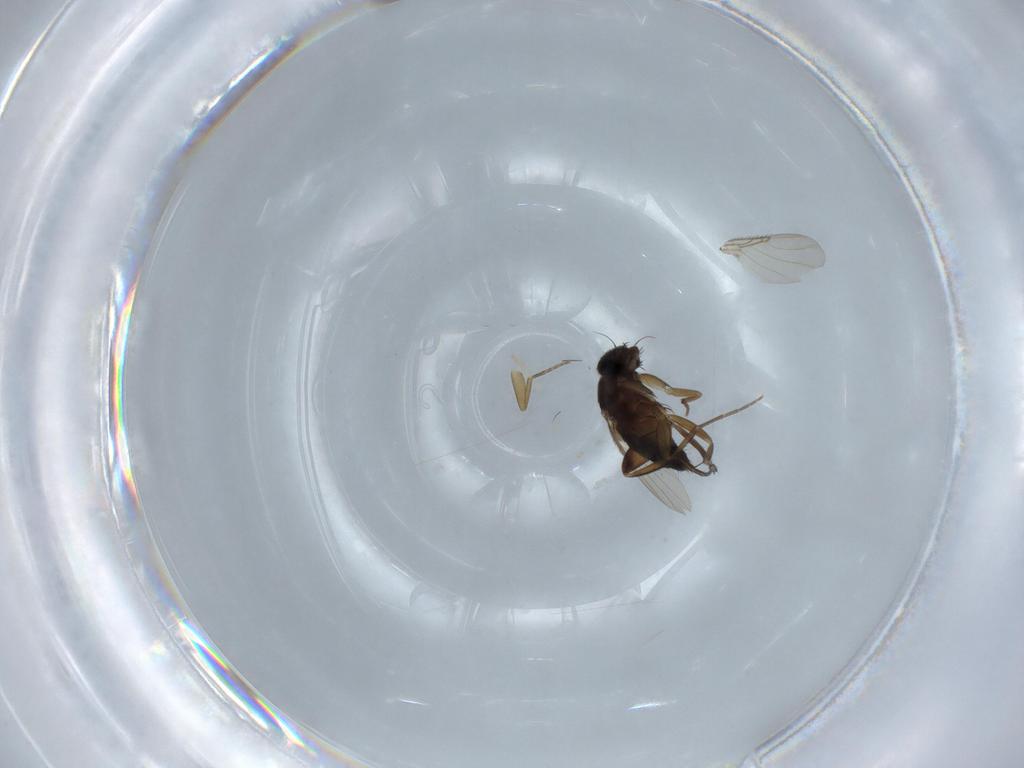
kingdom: Animalia
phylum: Arthropoda
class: Insecta
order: Diptera
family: Phoridae
